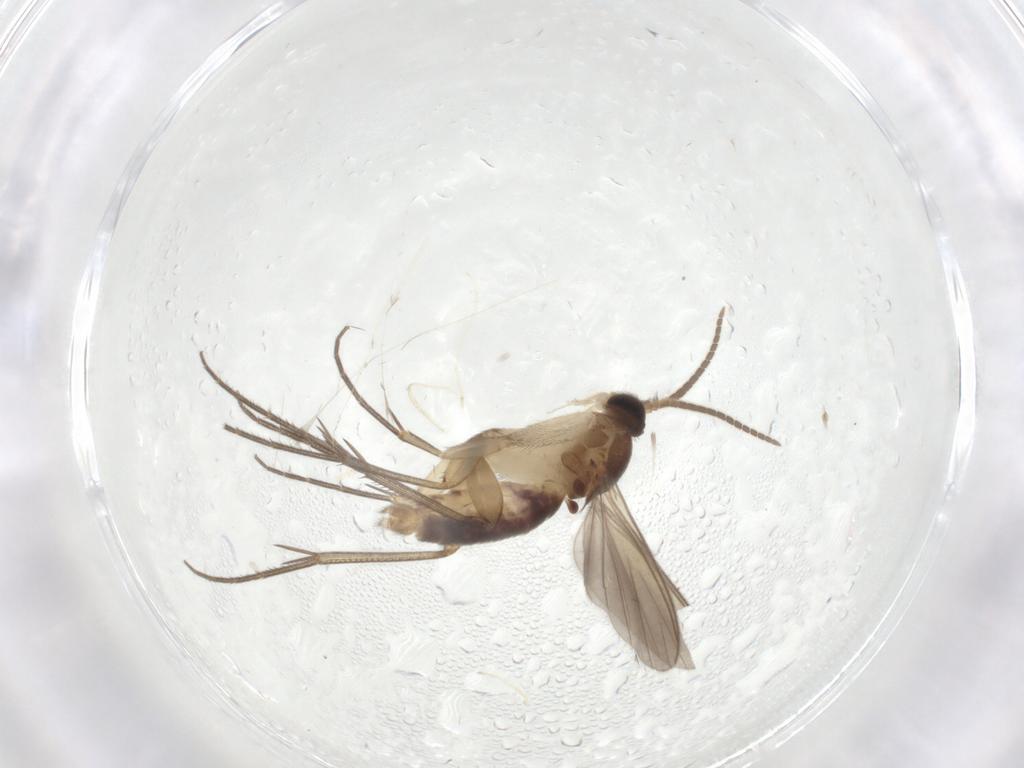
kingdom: Animalia
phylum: Arthropoda
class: Insecta
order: Diptera
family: Mycetophilidae
